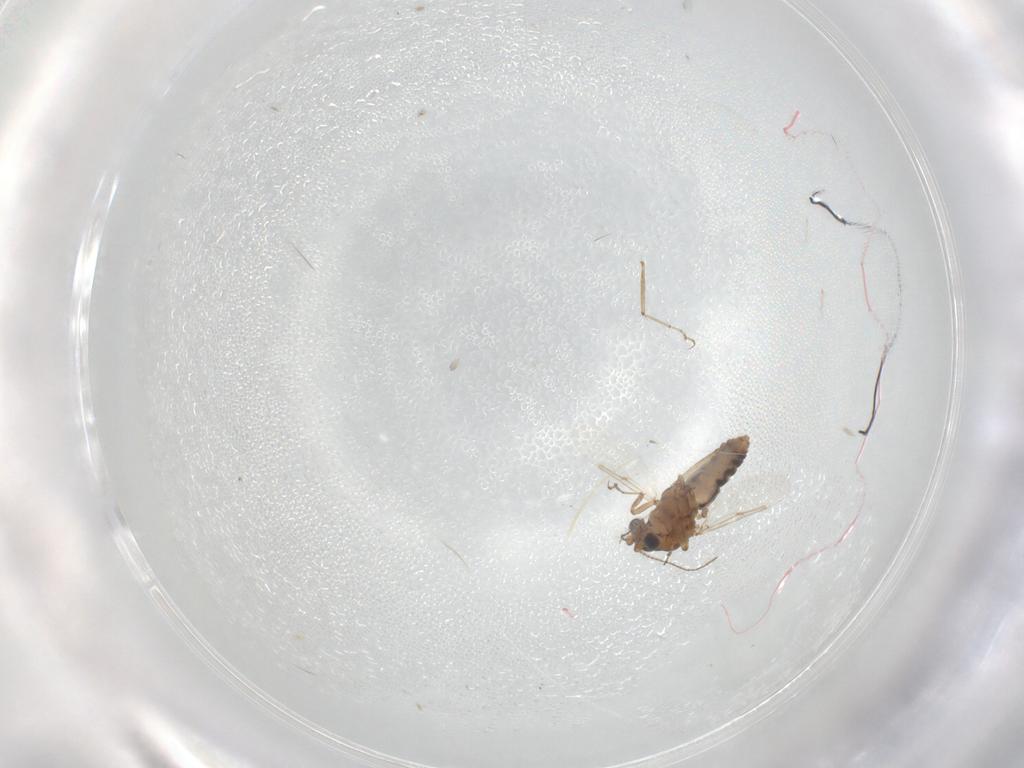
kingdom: Animalia
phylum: Arthropoda
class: Insecta
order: Diptera
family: Ceratopogonidae
